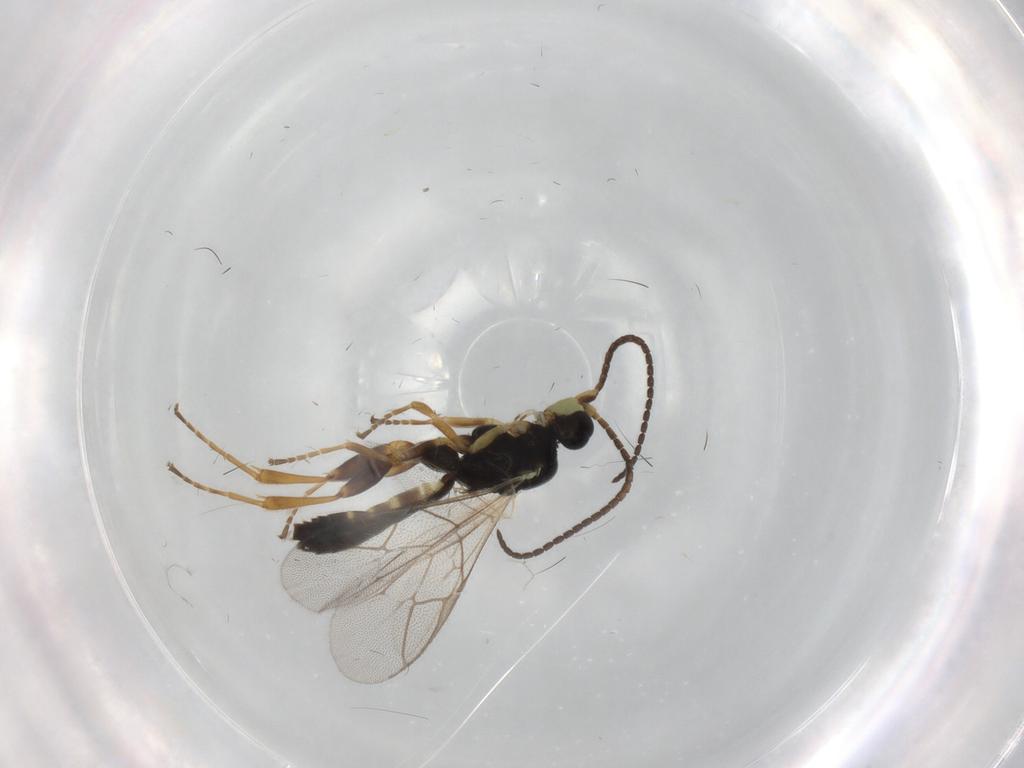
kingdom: Animalia
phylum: Arthropoda
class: Insecta
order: Hymenoptera
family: Ichneumonidae
